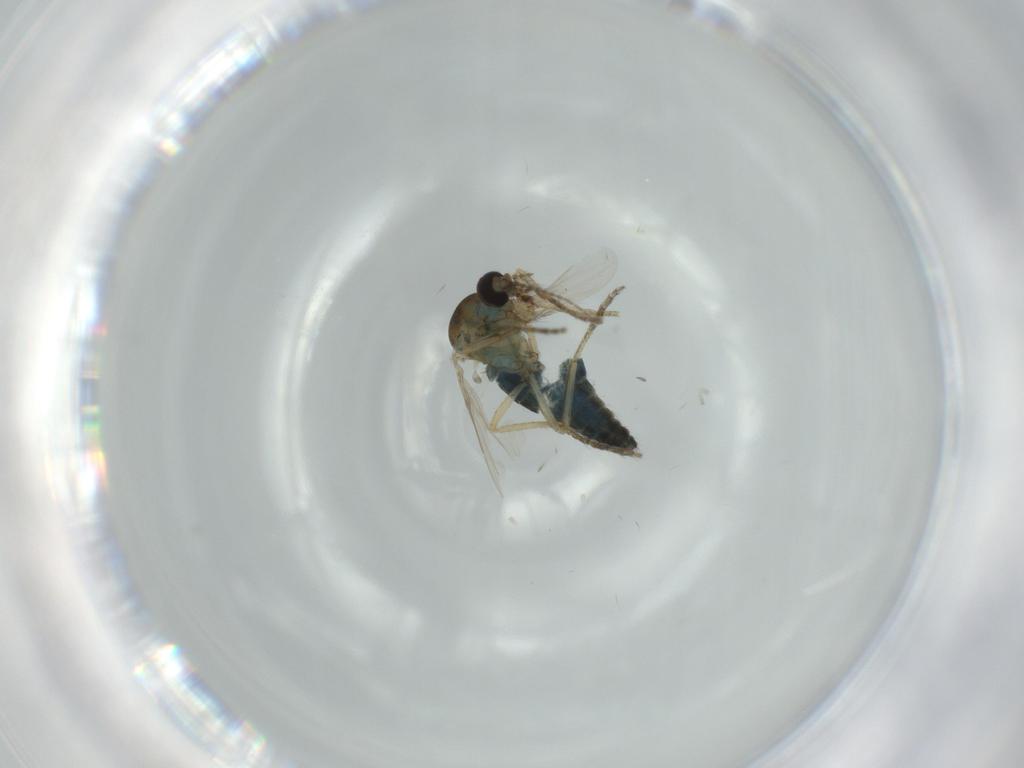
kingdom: Animalia
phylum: Arthropoda
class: Insecta
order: Diptera
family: Ceratopogonidae
